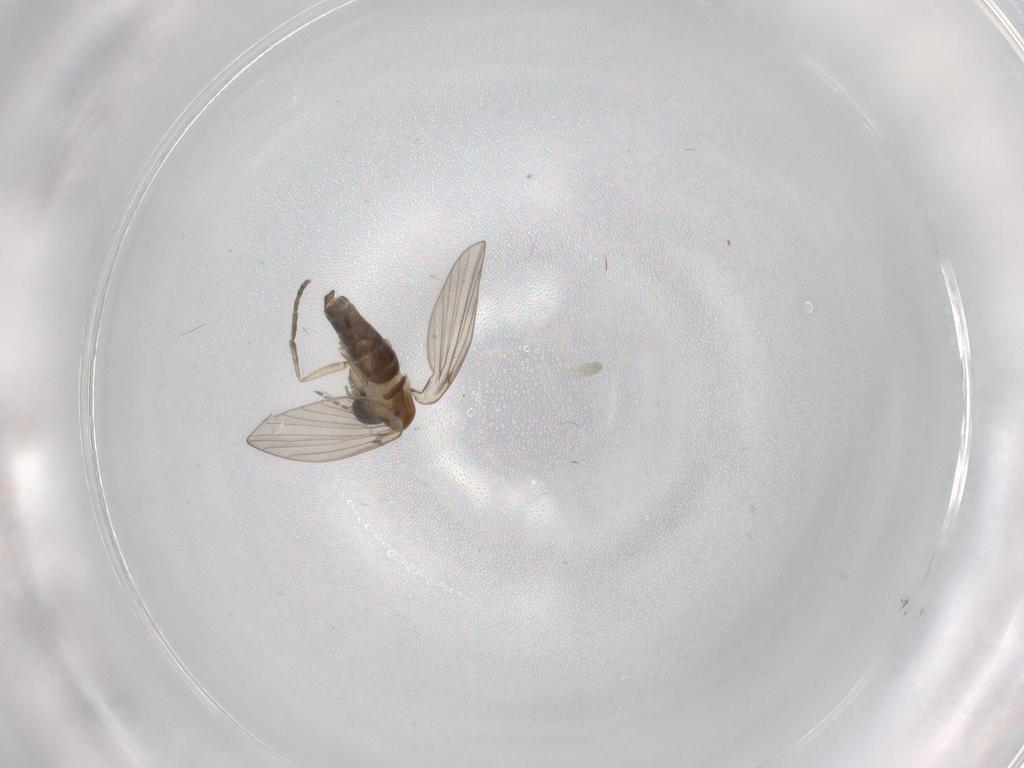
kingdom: Animalia
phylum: Arthropoda
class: Insecta
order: Diptera
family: Psychodidae
